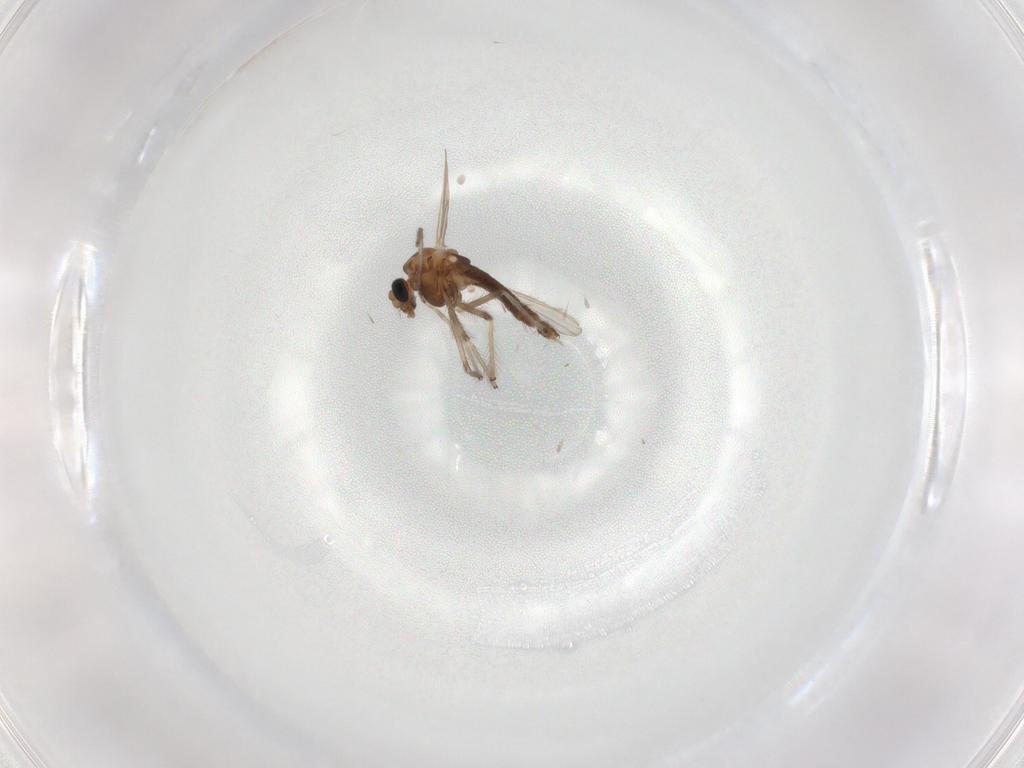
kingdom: Animalia
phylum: Arthropoda
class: Insecta
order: Diptera
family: Chironomidae
